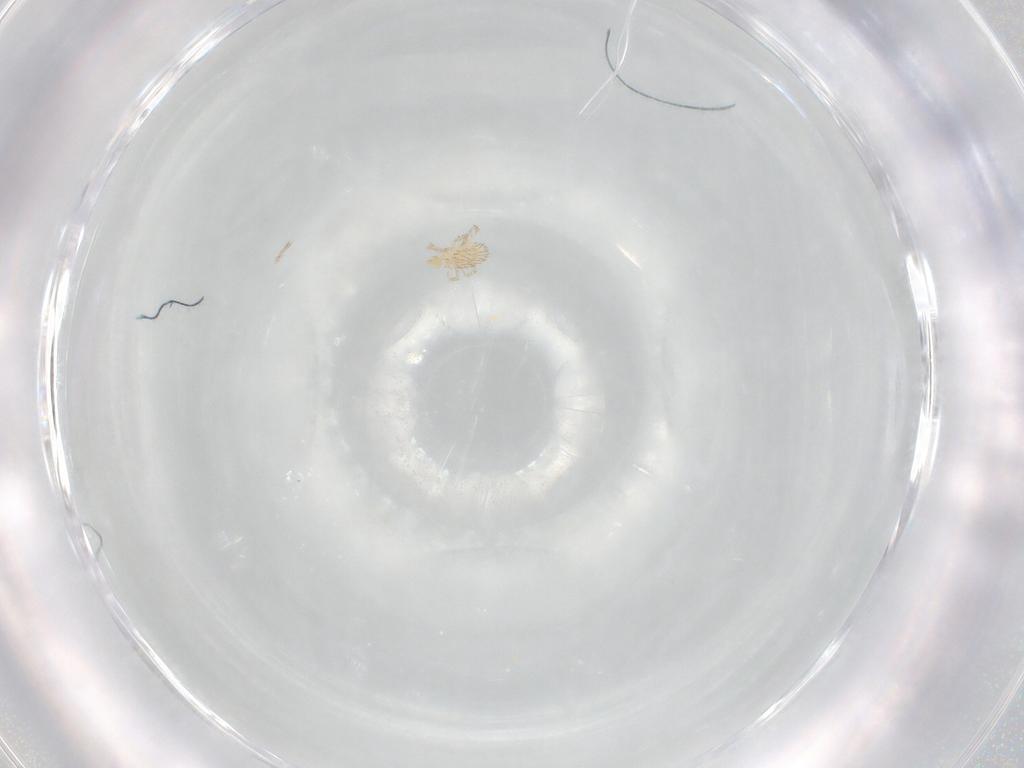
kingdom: Animalia
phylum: Arthropoda
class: Arachnida
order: Trombidiformes
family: Erythraeidae
